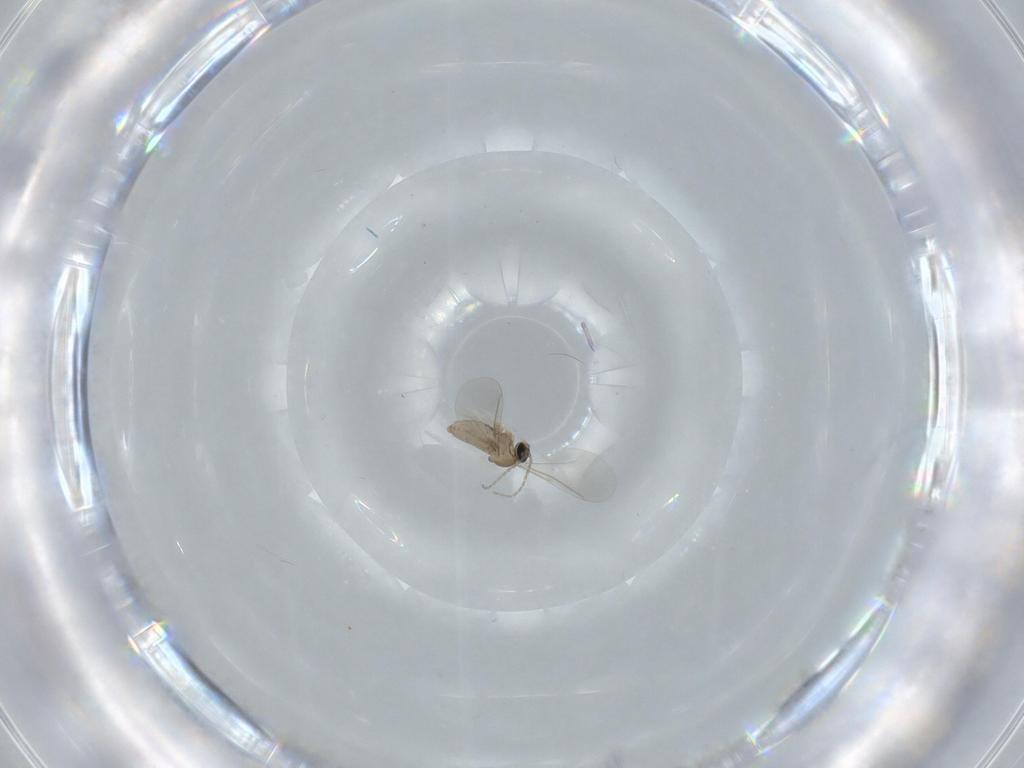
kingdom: Animalia
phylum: Arthropoda
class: Insecta
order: Diptera
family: Cecidomyiidae
